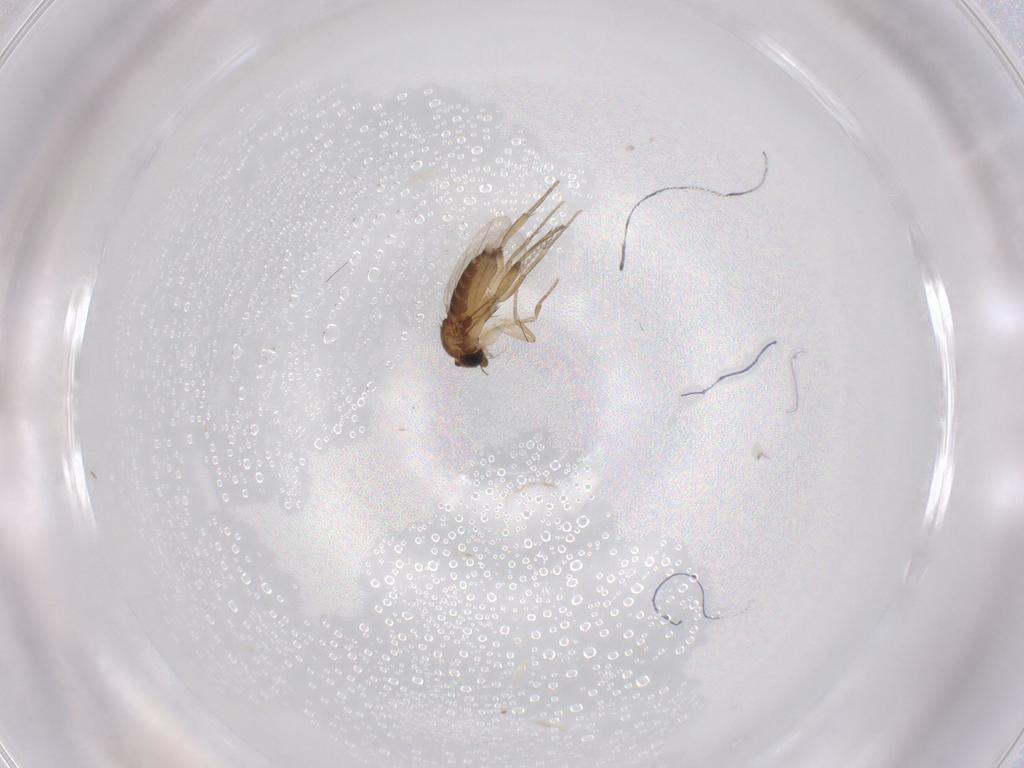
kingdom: Animalia
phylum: Arthropoda
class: Insecta
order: Diptera
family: Phoridae
